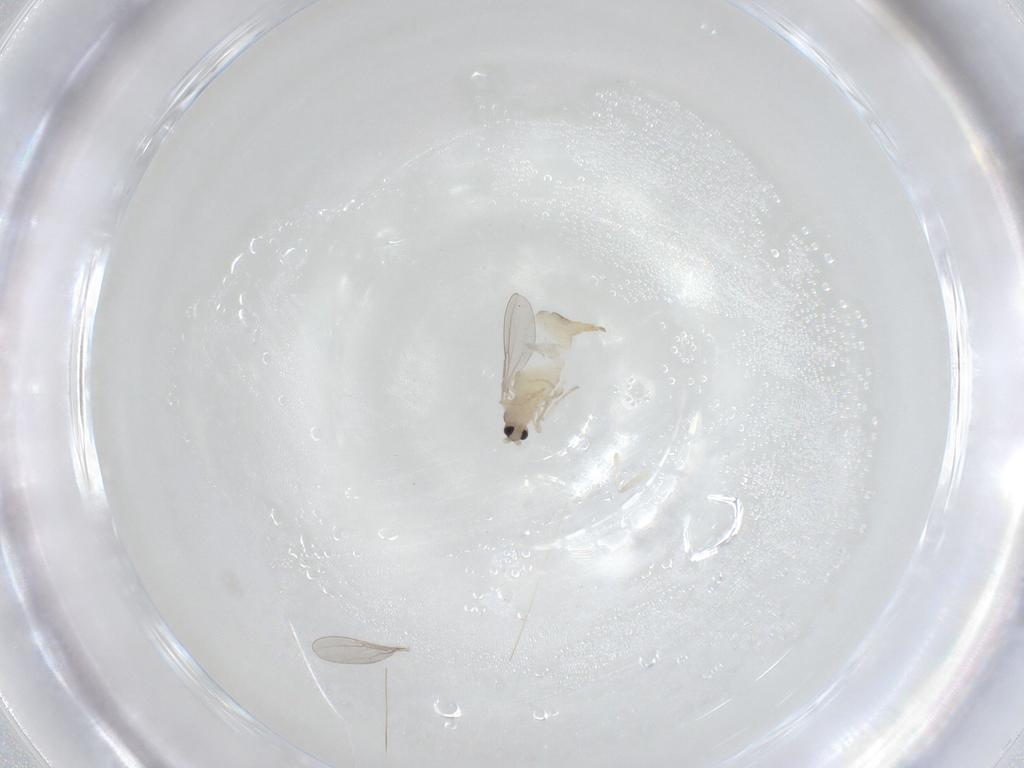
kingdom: Animalia
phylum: Arthropoda
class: Insecta
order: Diptera
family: Cecidomyiidae
